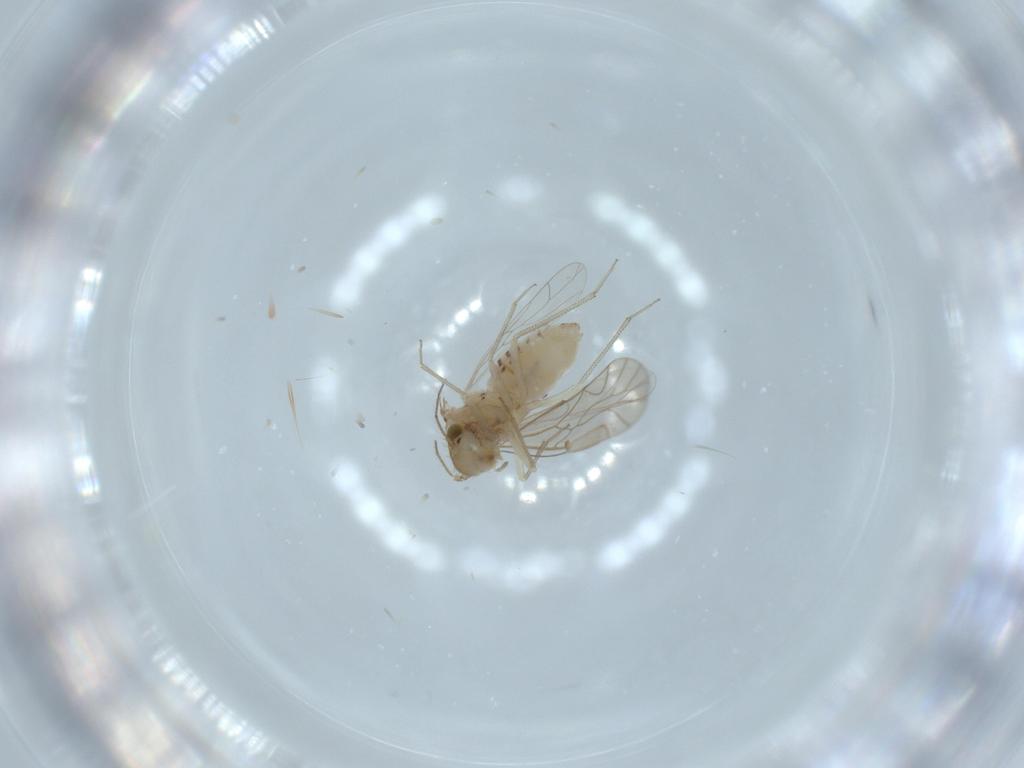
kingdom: Animalia
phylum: Arthropoda
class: Insecta
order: Psocodea
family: Lachesillidae
